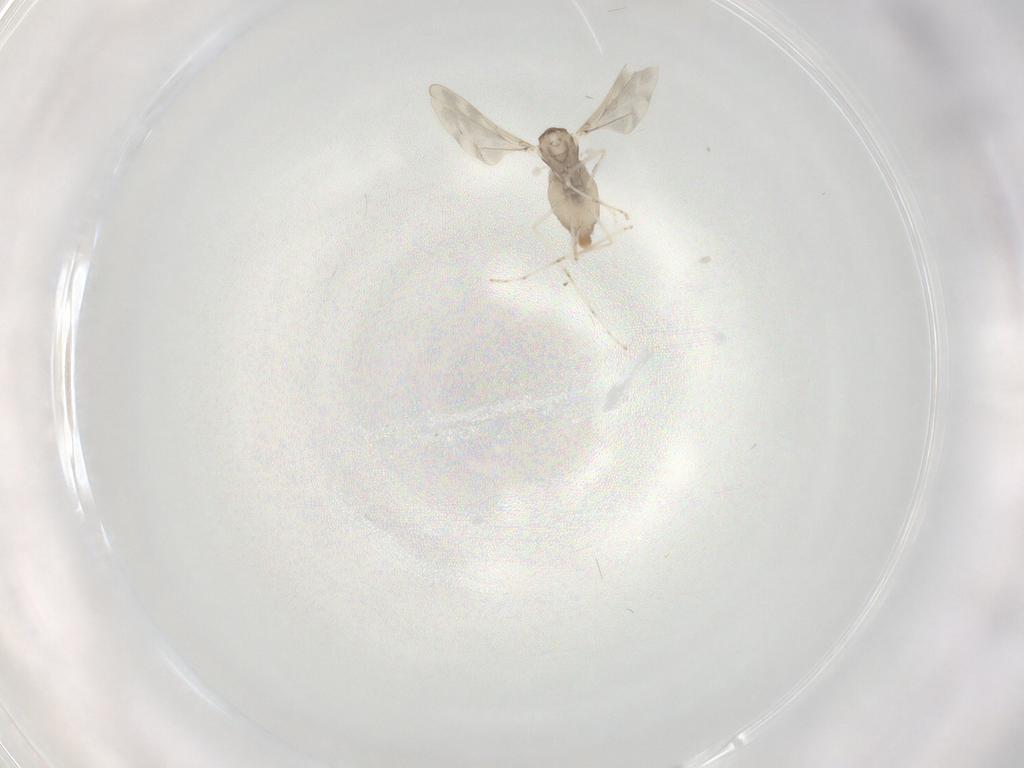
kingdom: Animalia
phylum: Arthropoda
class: Insecta
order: Diptera
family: Cecidomyiidae
